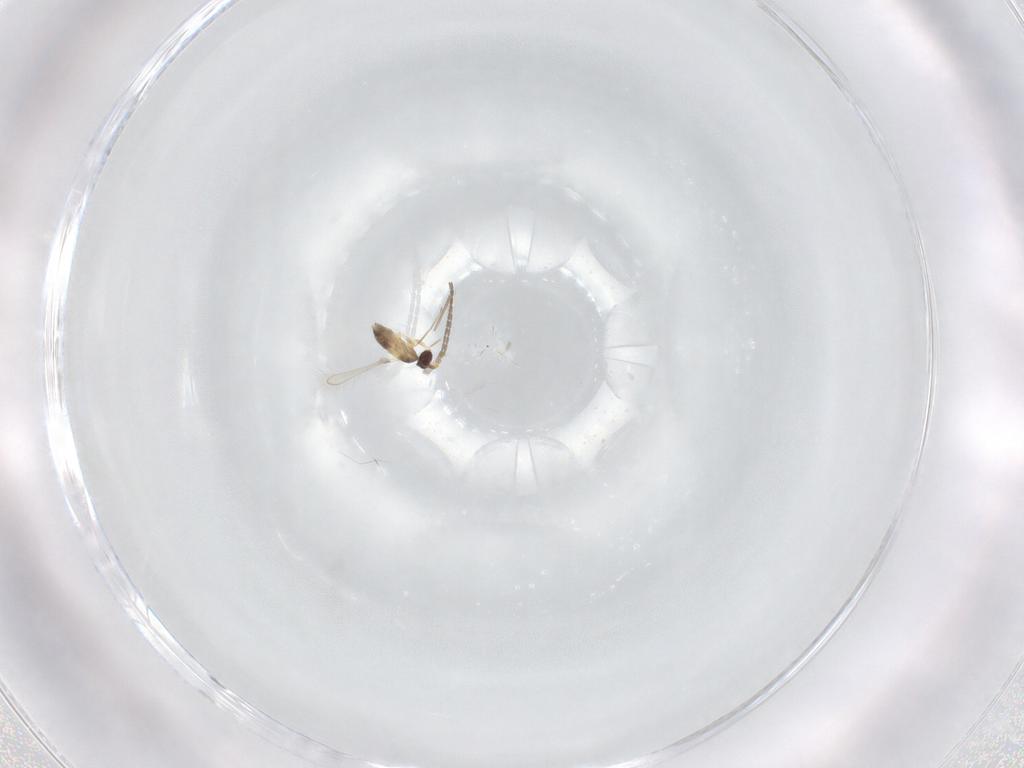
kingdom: Animalia
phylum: Arthropoda
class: Insecta
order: Hymenoptera
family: Mymaridae
